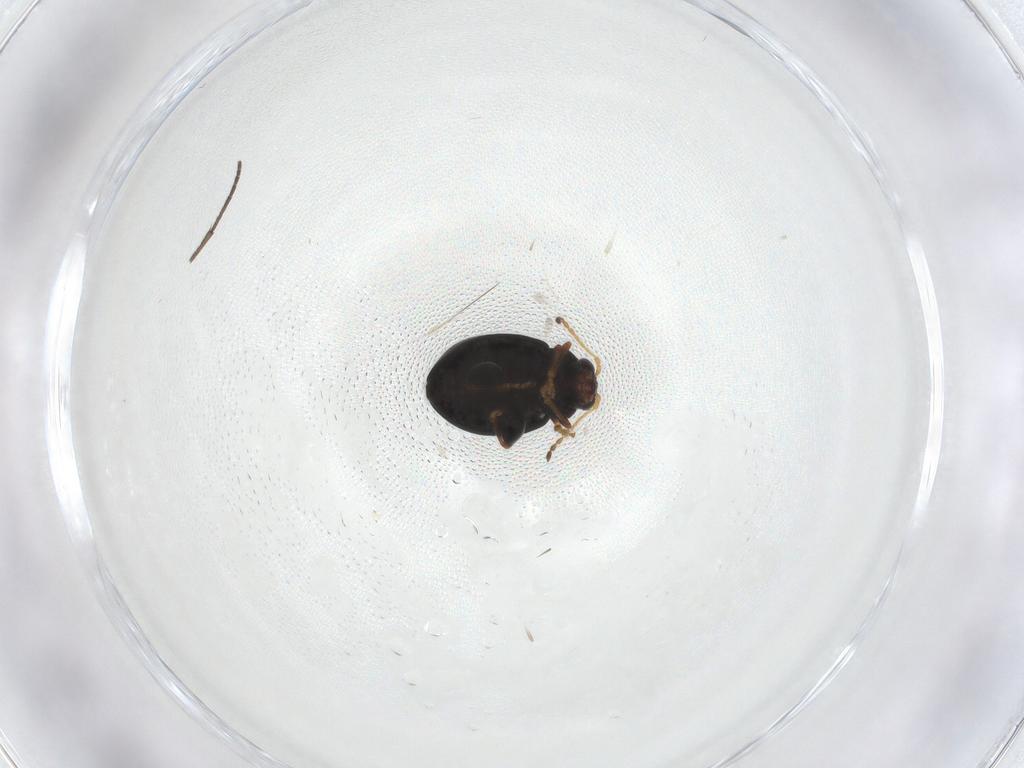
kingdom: Animalia
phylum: Arthropoda
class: Insecta
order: Coleoptera
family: Chrysomelidae
